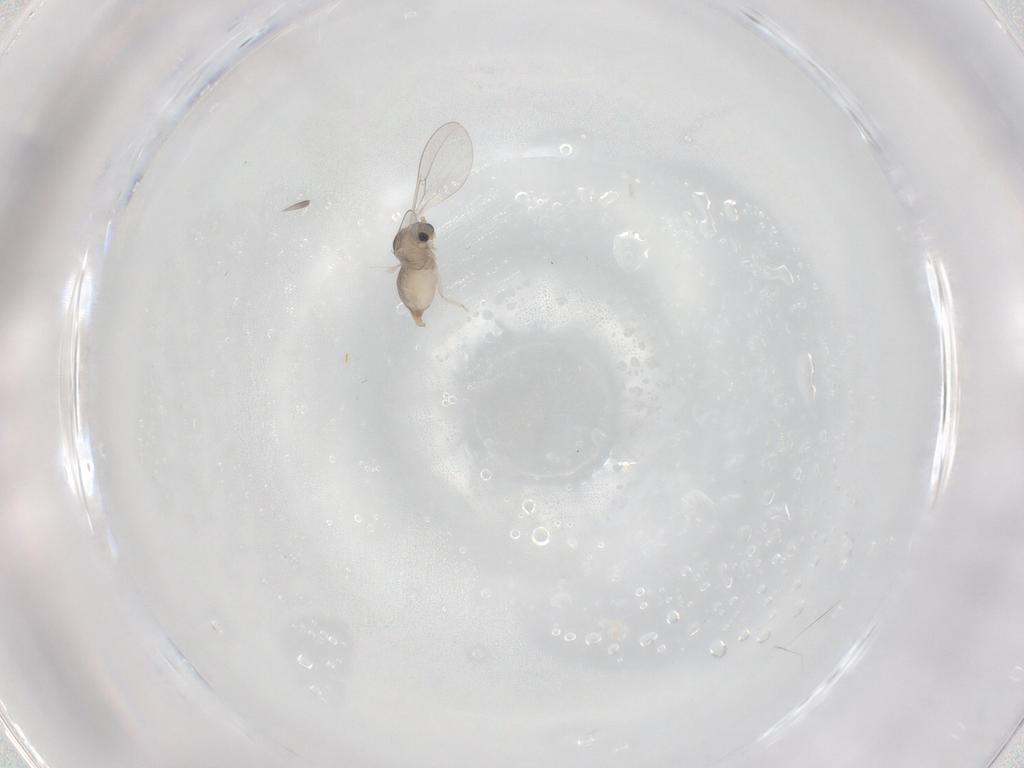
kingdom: Animalia
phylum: Arthropoda
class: Insecta
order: Diptera
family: Cecidomyiidae
